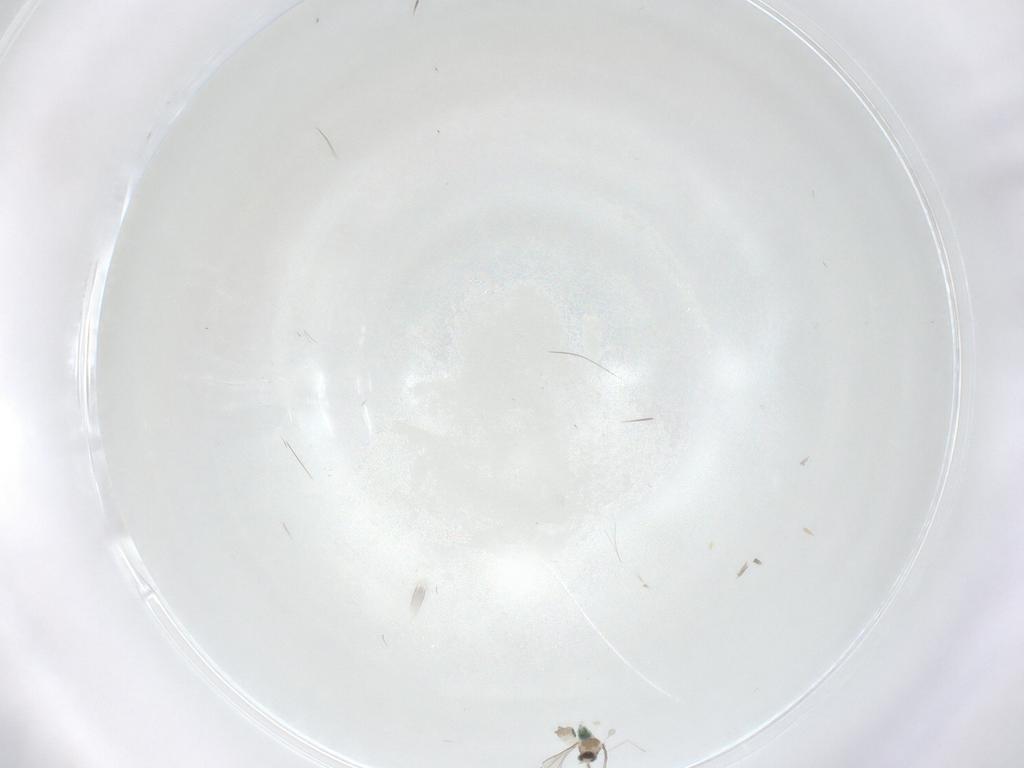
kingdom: Animalia
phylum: Arthropoda
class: Insecta
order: Diptera
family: Cecidomyiidae
